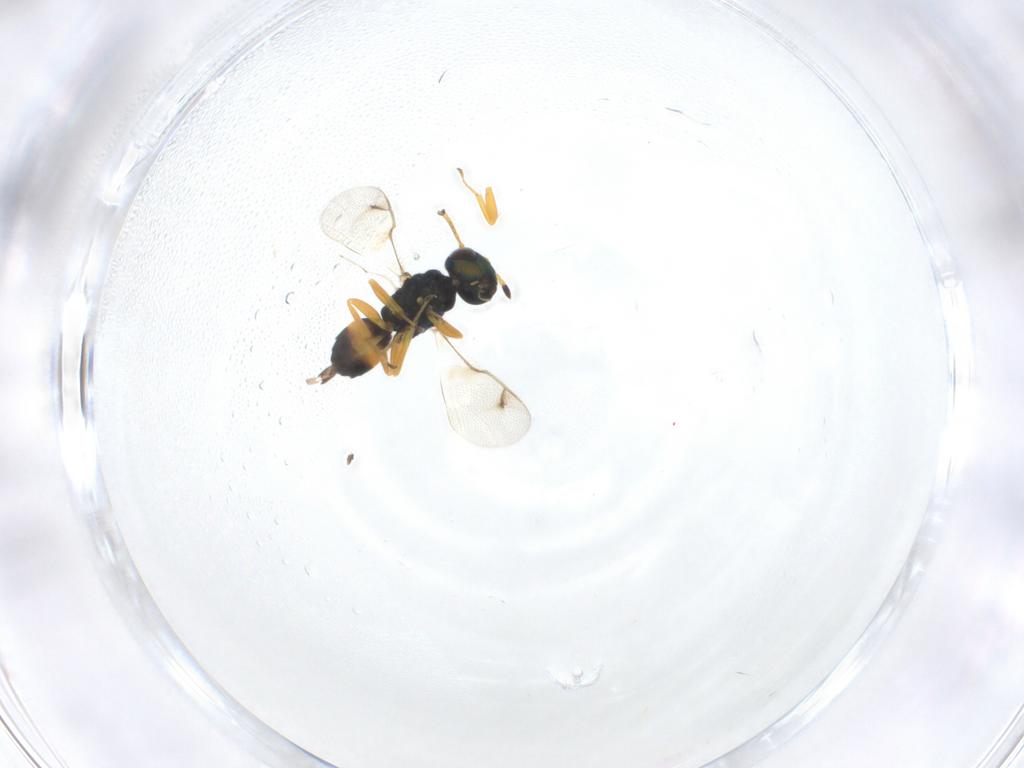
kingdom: Animalia
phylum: Arthropoda
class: Insecta
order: Hymenoptera
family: Pteromalidae
